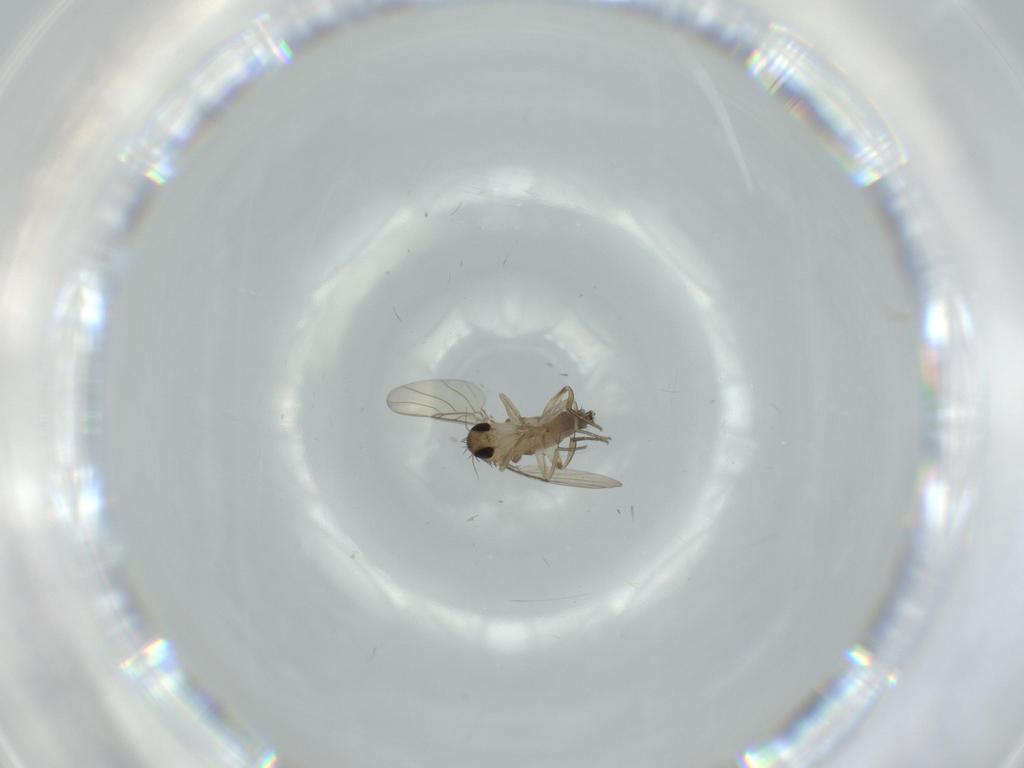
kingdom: Animalia
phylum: Arthropoda
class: Insecta
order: Diptera
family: Phoridae
